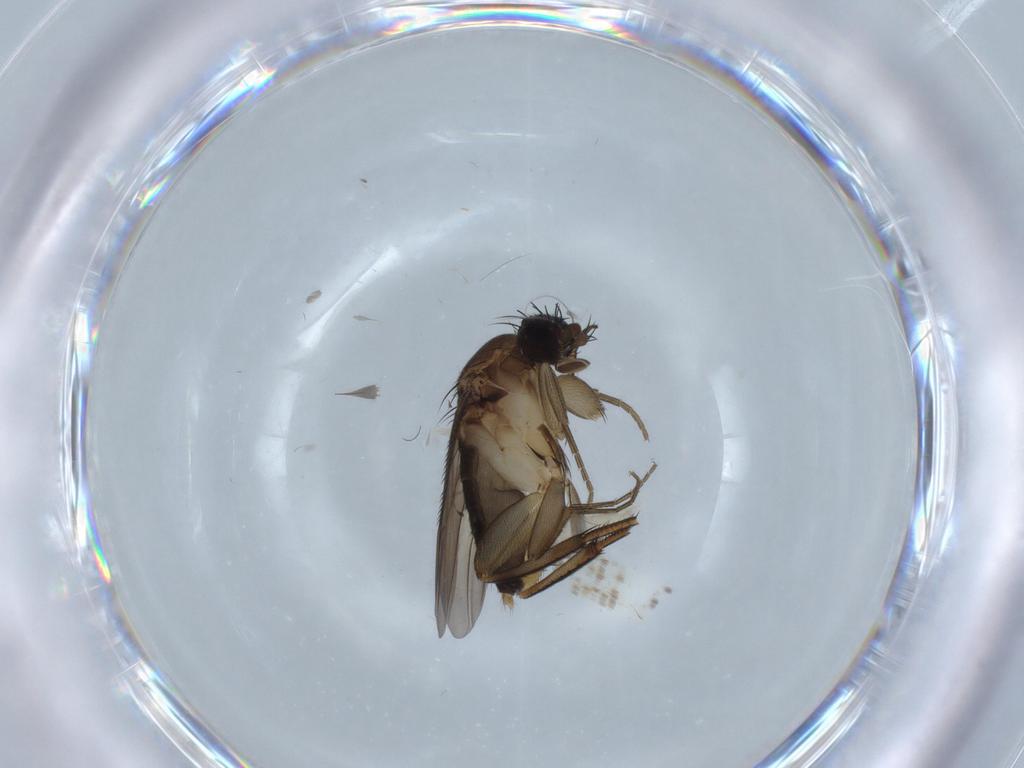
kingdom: Animalia
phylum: Arthropoda
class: Insecta
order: Diptera
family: Phoridae
